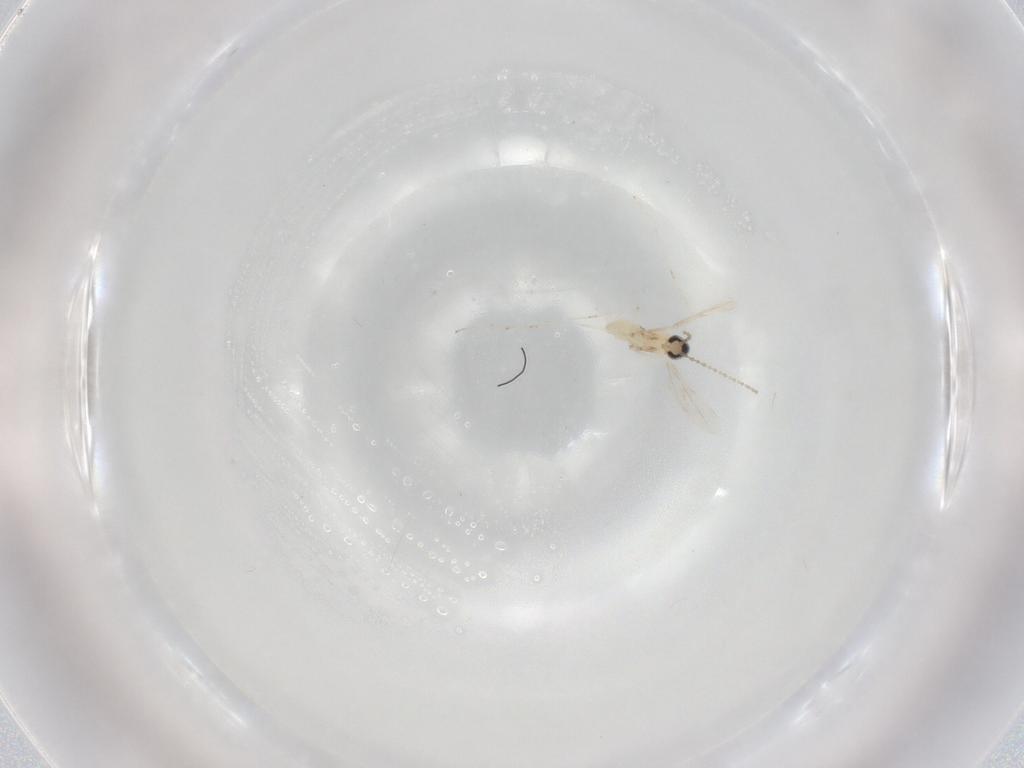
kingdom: Animalia
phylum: Arthropoda
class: Insecta
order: Diptera
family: Cecidomyiidae
